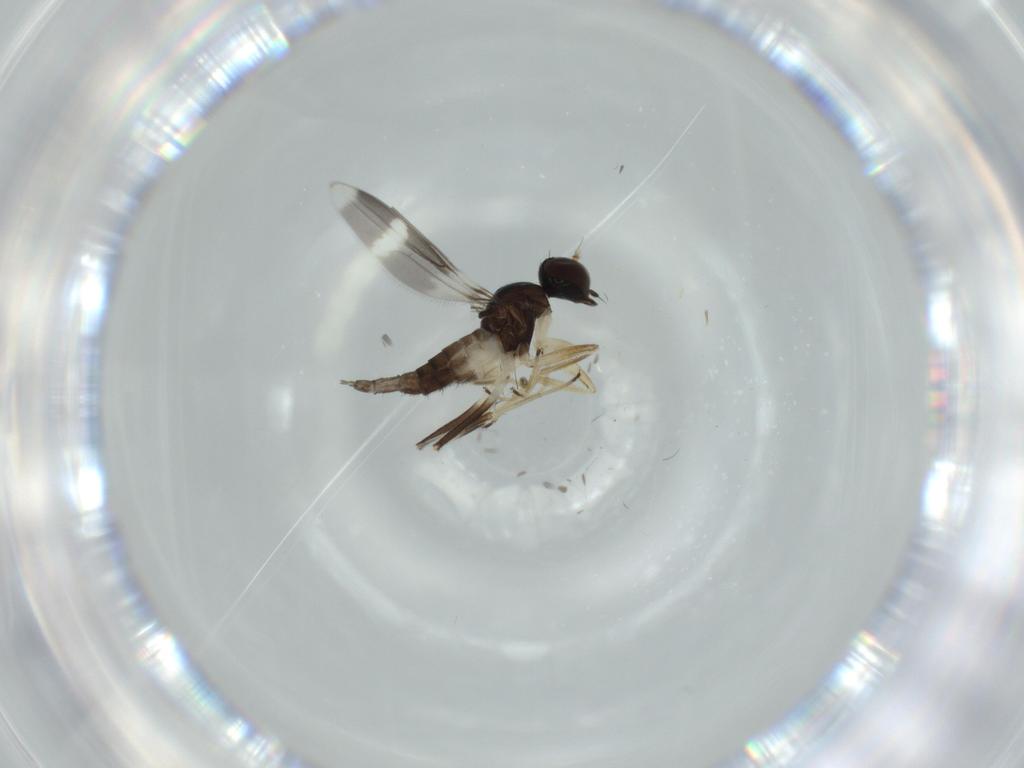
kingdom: Animalia
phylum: Arthropoda
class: Insecta
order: Diptera
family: Hybotidae
